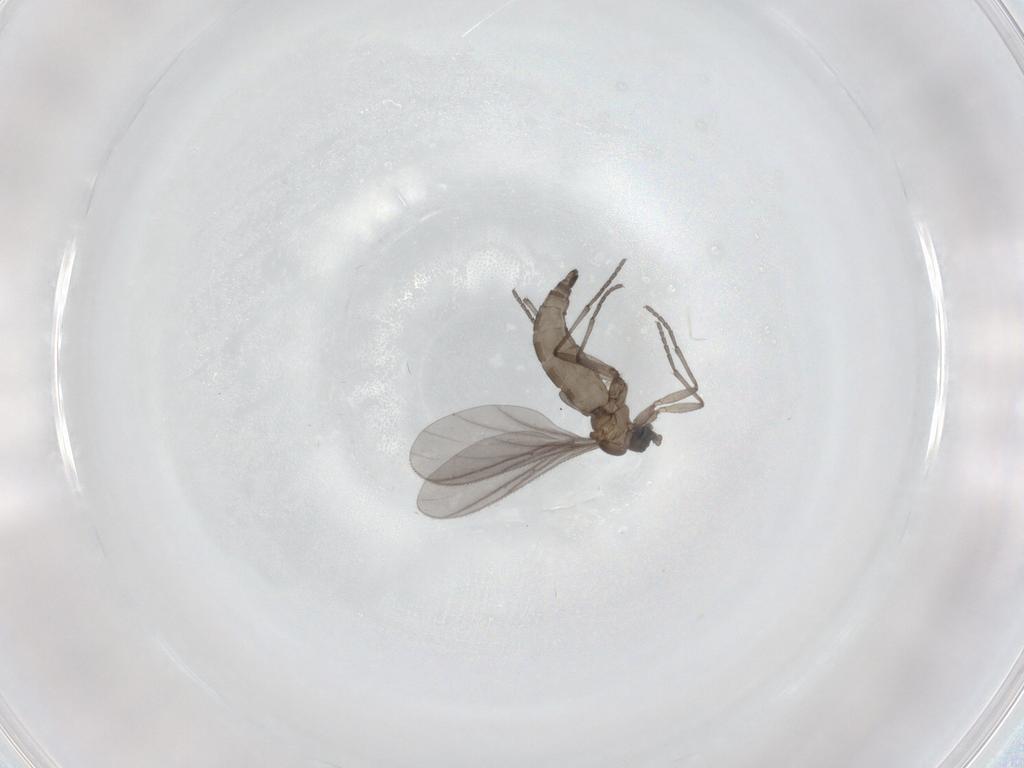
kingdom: Animalia
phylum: Arthropoda
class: Insecta
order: Diptera
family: Sciaridae
